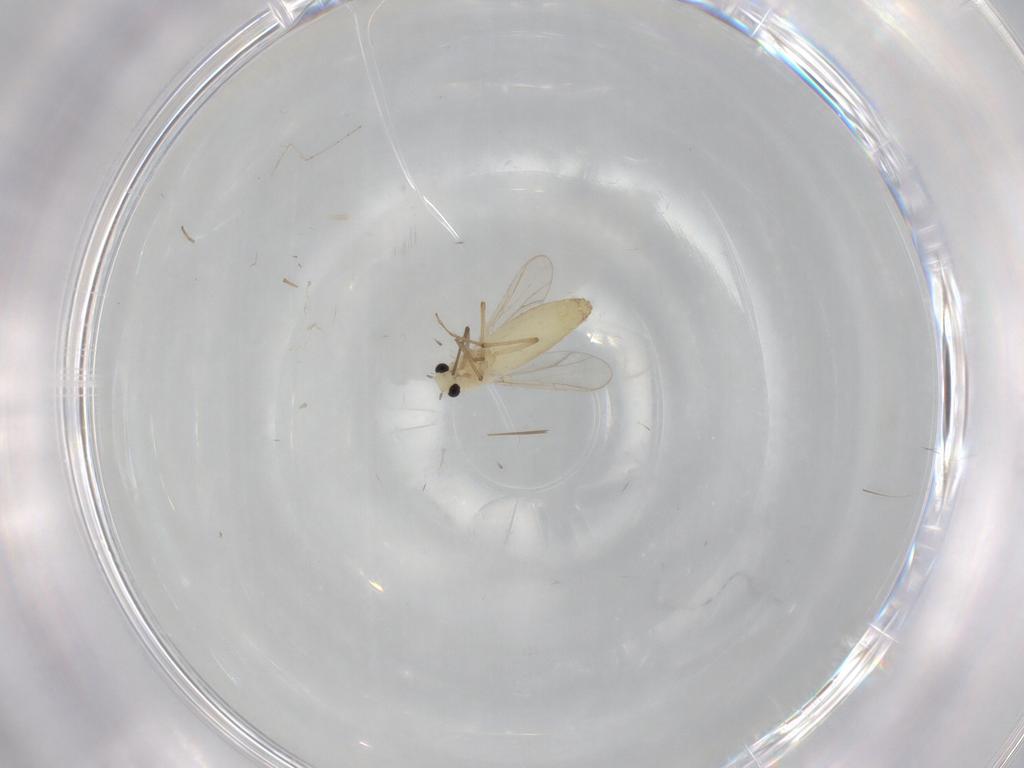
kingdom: Animalia
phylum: Arthropoda
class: Insecta
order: Diptera
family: Chironomidae
